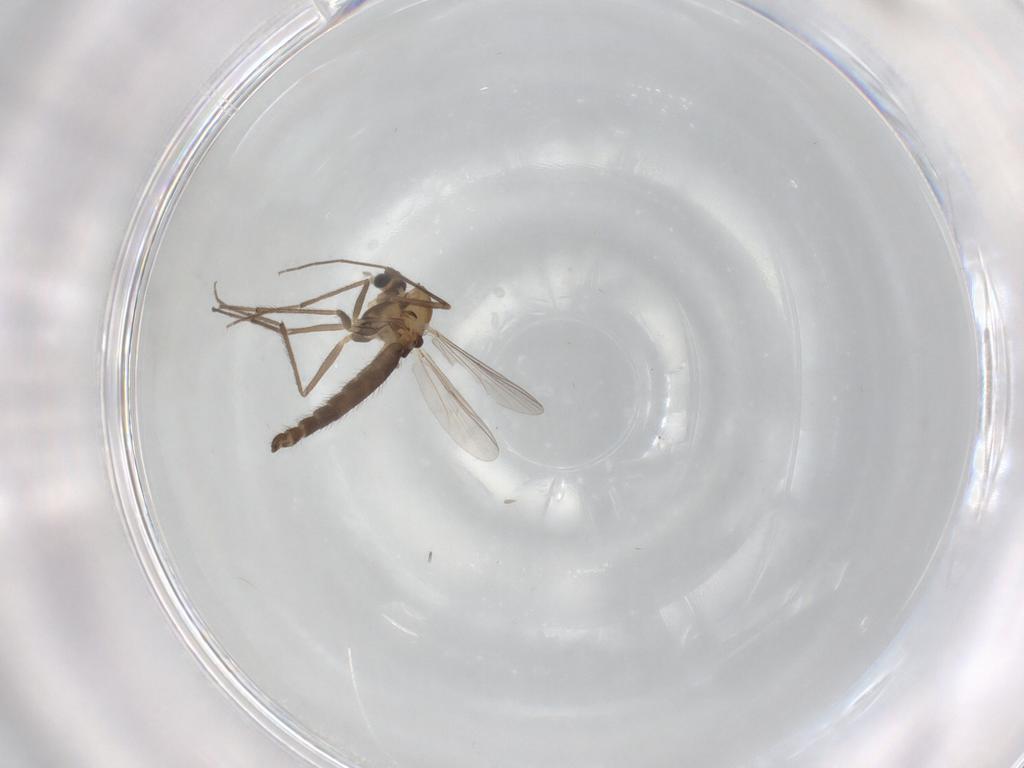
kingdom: Animalia
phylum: Arthropoda
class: Insecta
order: Diptera
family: Chironomidae
